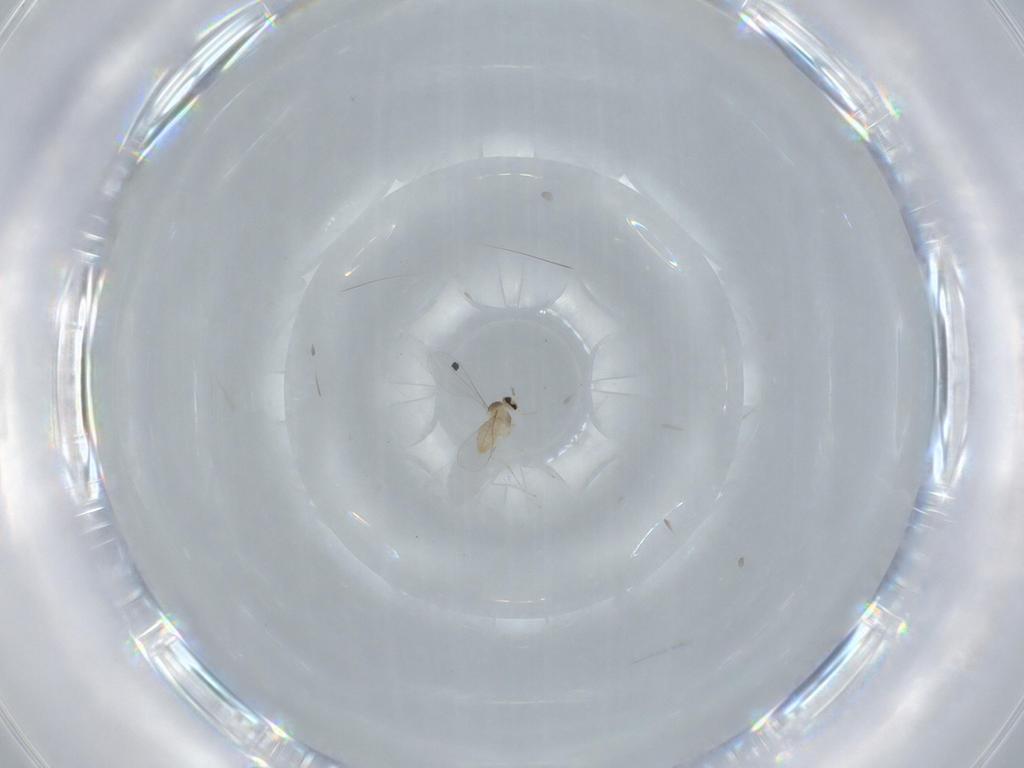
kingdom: Animalia
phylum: Arthropoda
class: Insecta
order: Diptera
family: Cecidomyiidae
